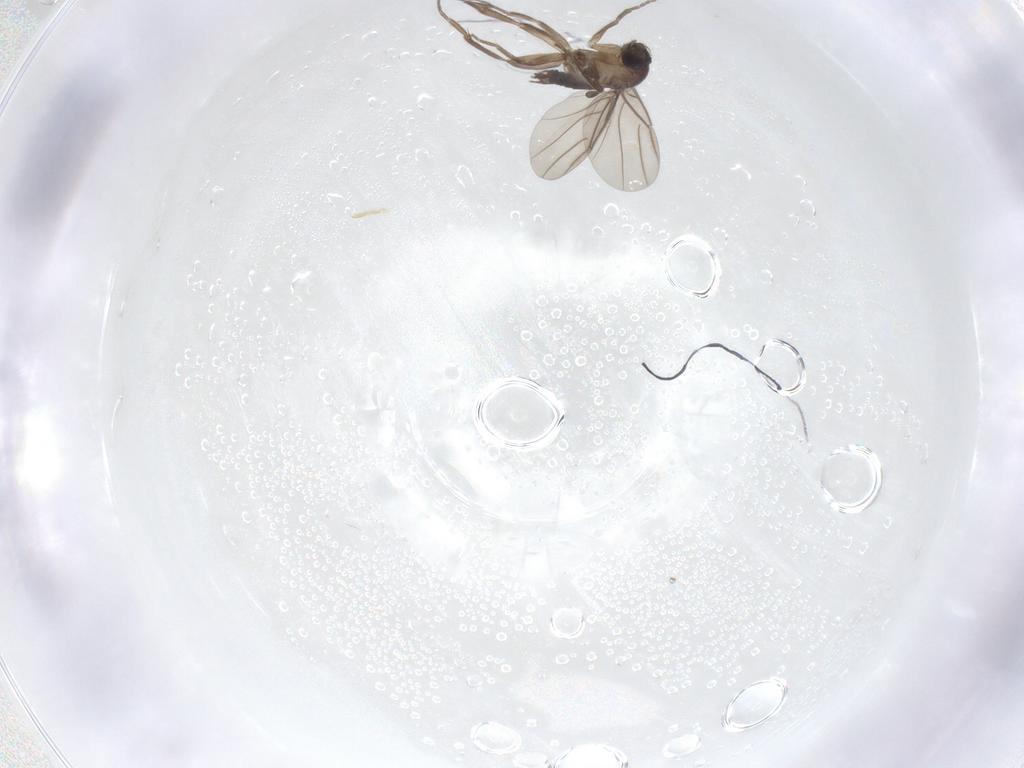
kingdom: Animalia
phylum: Arthropoda
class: Insecta
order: Diptera
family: Phoridae
